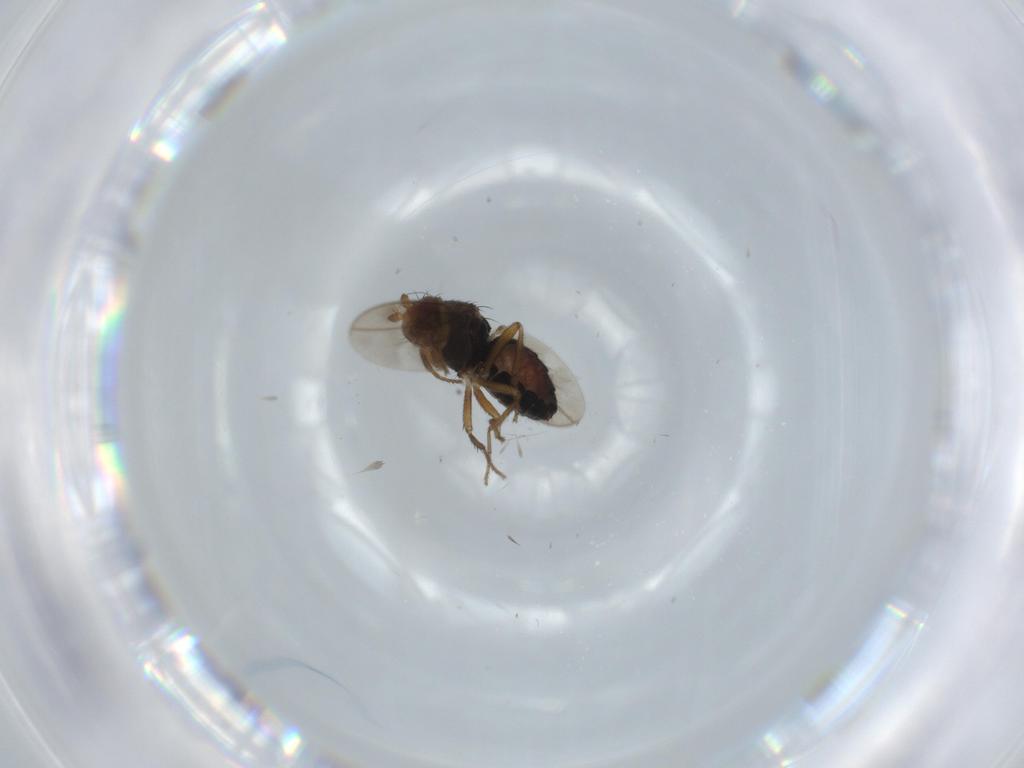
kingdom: Animalia
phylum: Arthropoda
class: Insecta
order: Diptera
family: Sphaeroceridae
